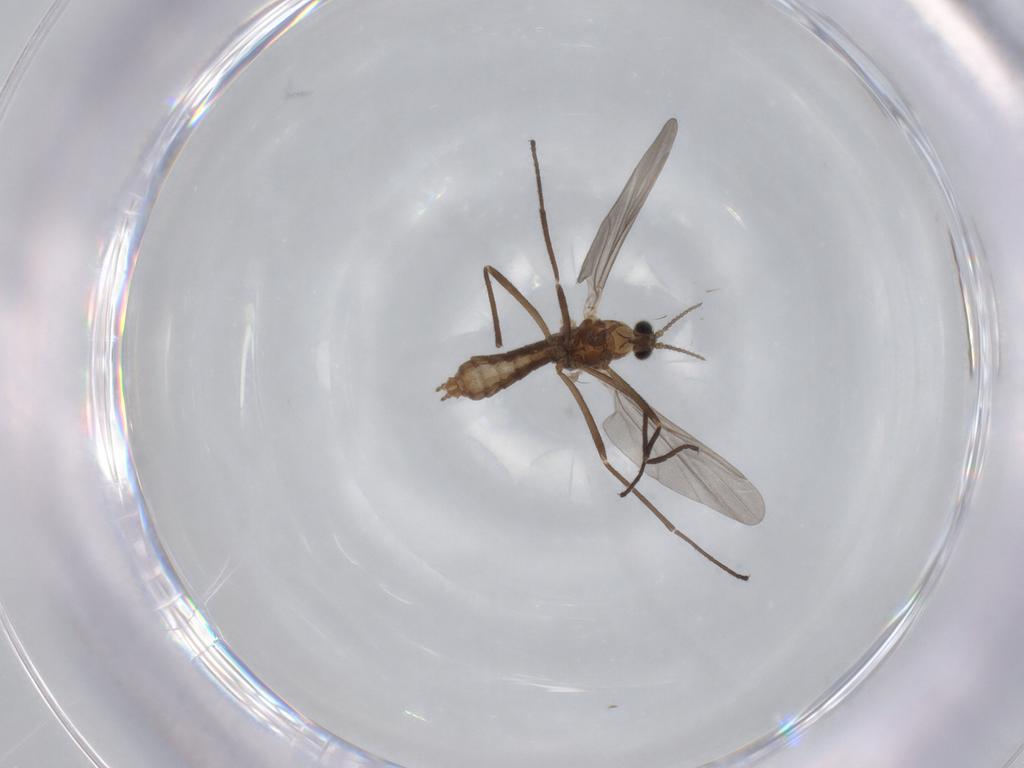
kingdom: Animalia
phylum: Arthropoda
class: Insecta
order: Diptera
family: Cecidomyiidae
